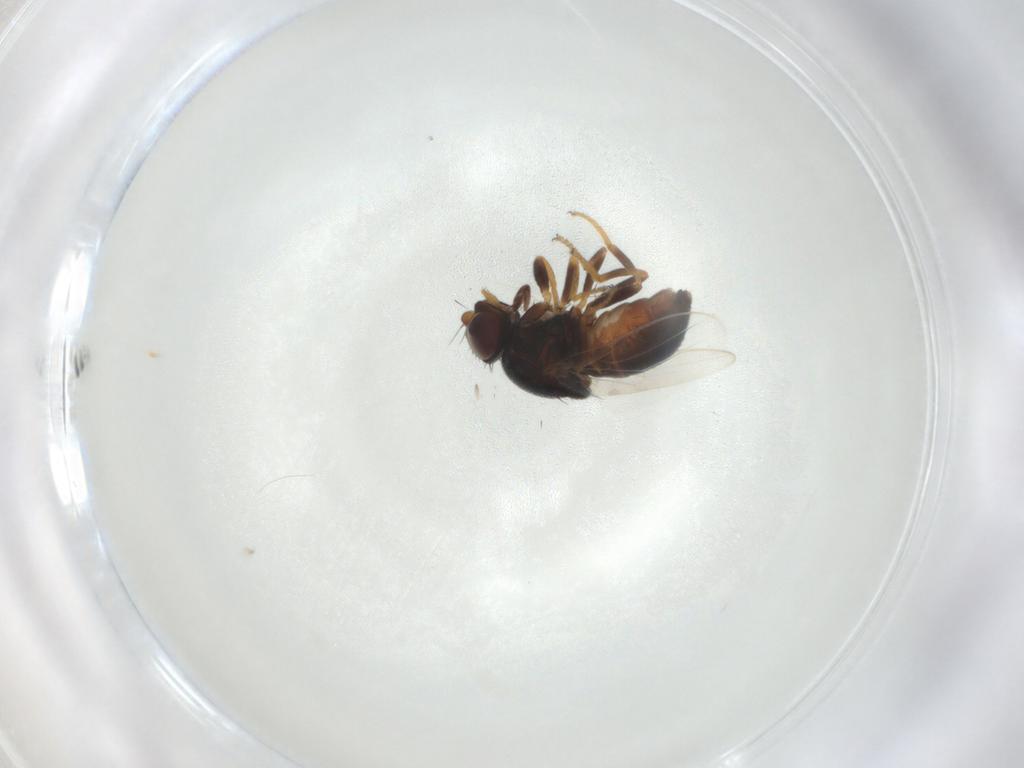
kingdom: Animalia
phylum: Arthropoda
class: Insecta
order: Diptera
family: Chloropidae
